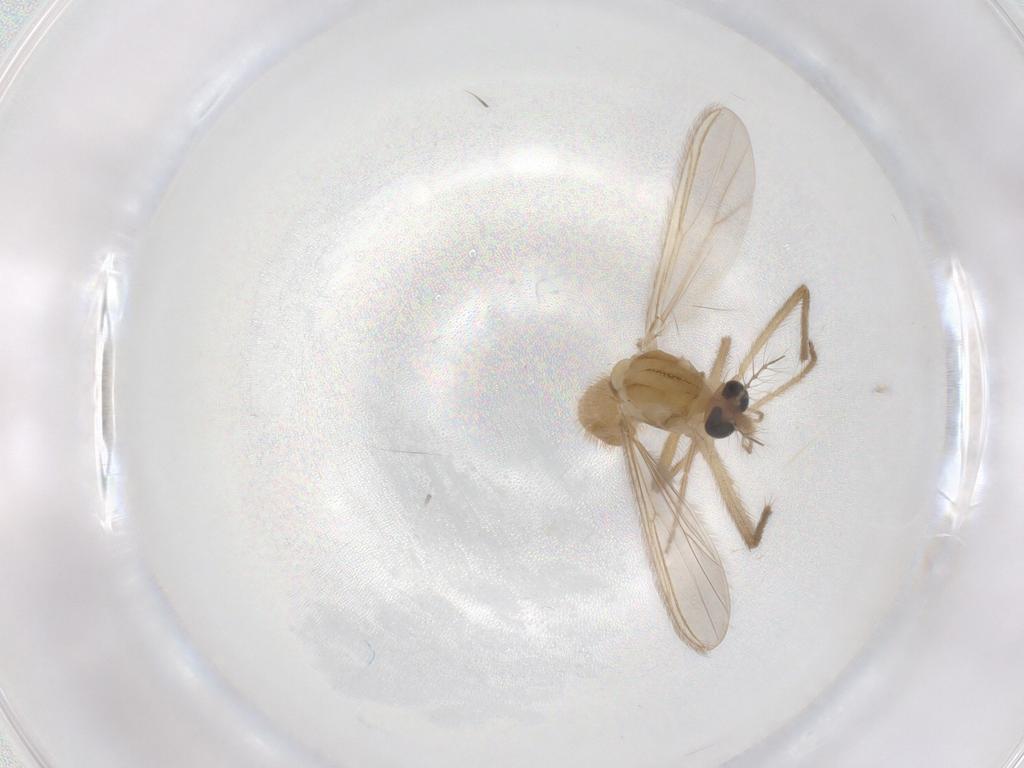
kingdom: Animalia
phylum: Arthropoda
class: Insecta
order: Diptera
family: Chironomidae
